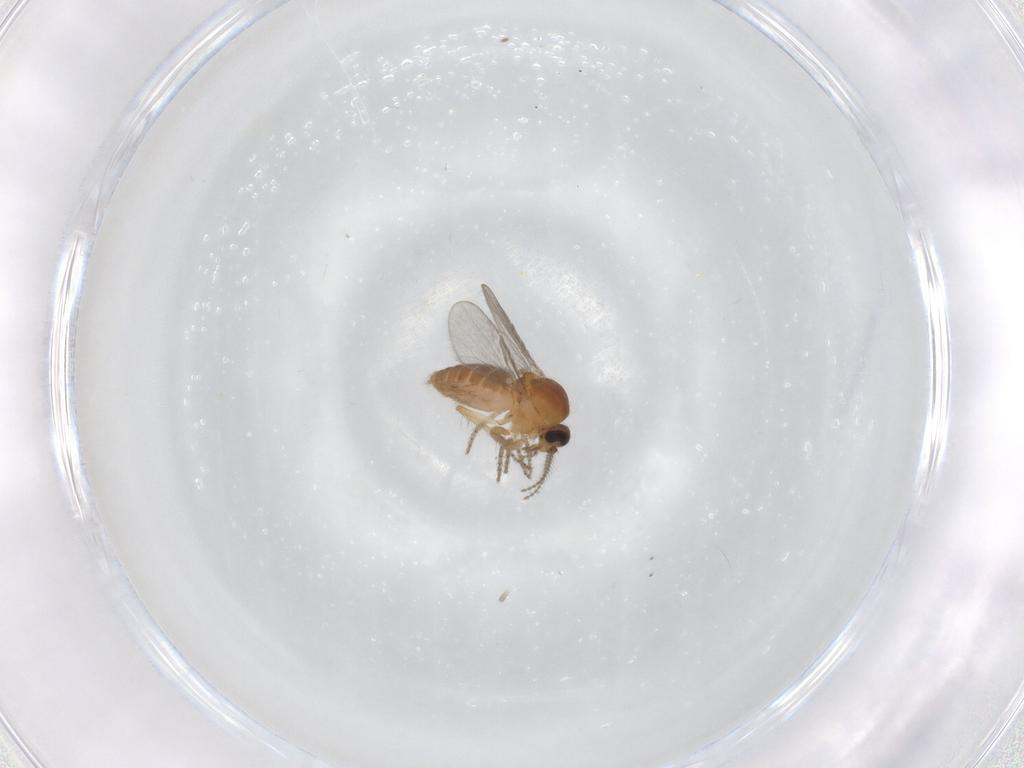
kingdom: Animalia
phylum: Arthropoda
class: Insecta
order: Diptera
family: Ceratopogonidae
